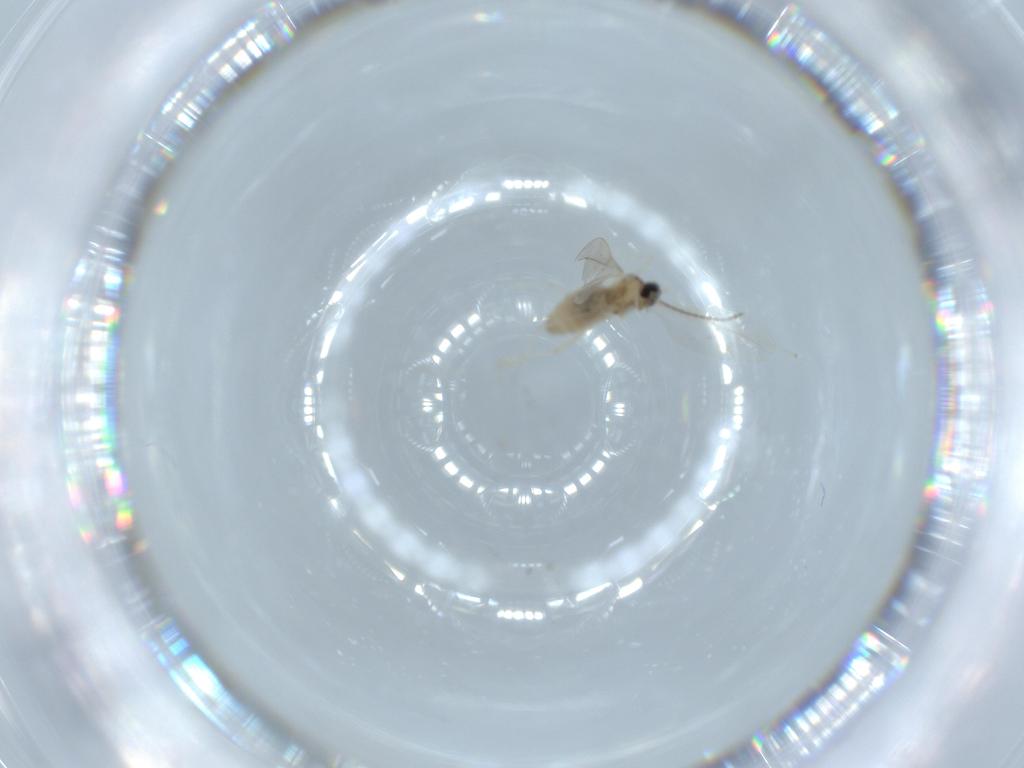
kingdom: Animalia
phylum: Arthropoda
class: Insecta
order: Diptera
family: Cecidomyiidae
